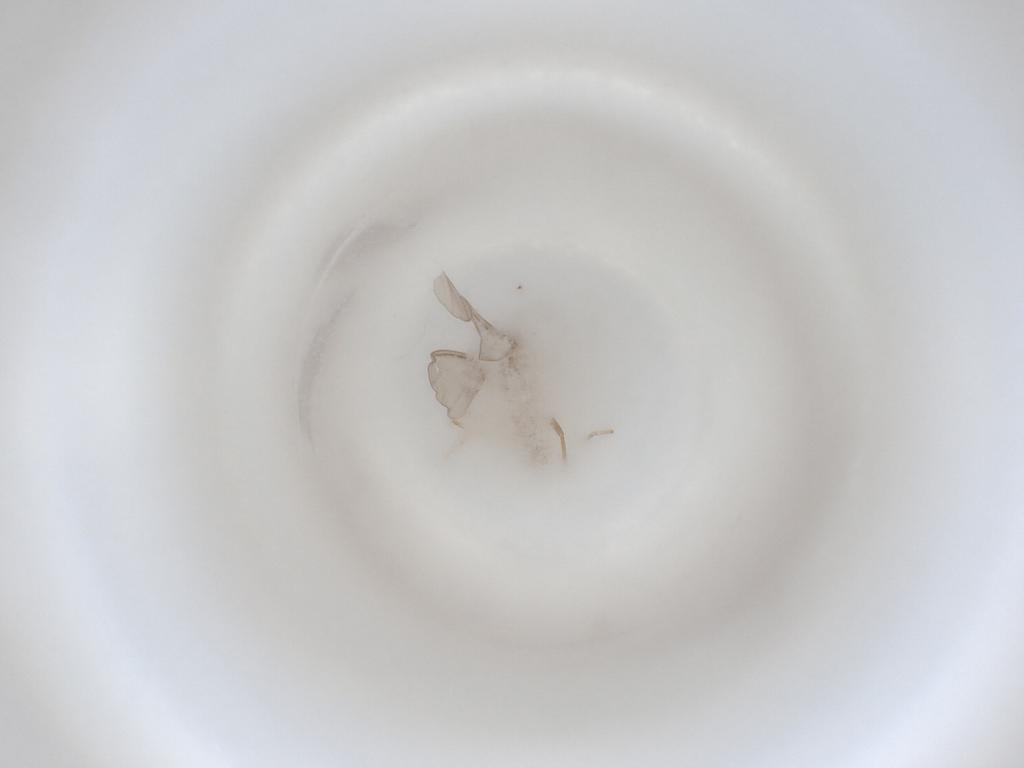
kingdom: Animalia
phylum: Arthropoda
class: Insecta
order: Diptera
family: Cecidomyiidae
